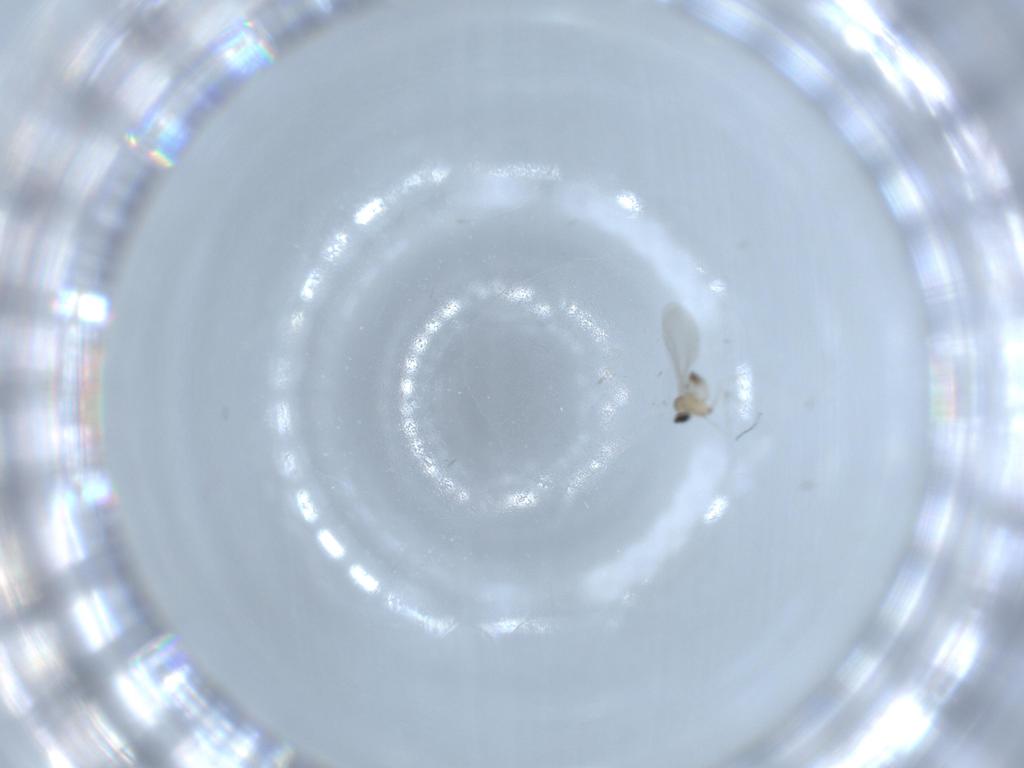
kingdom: Animalia
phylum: Arthropoda
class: Insecta
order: Diptera
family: Cecidomyiidae
